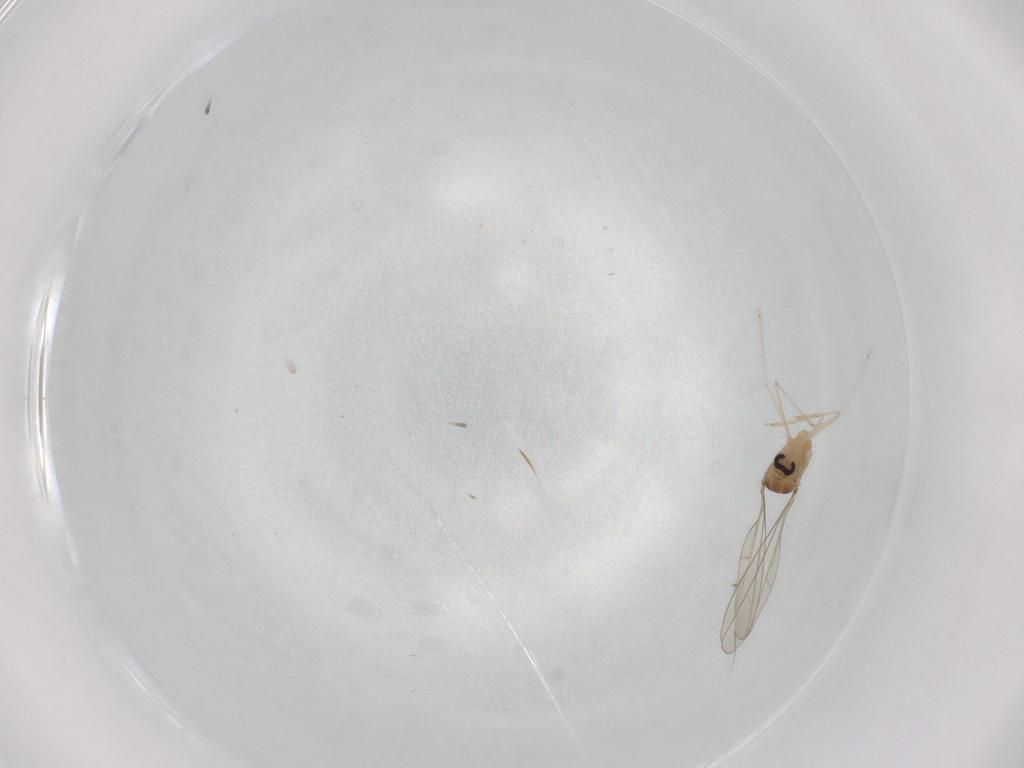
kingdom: Animalia
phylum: Arthropoda
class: Insecta
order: Diptera
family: Cecidomyiidae
